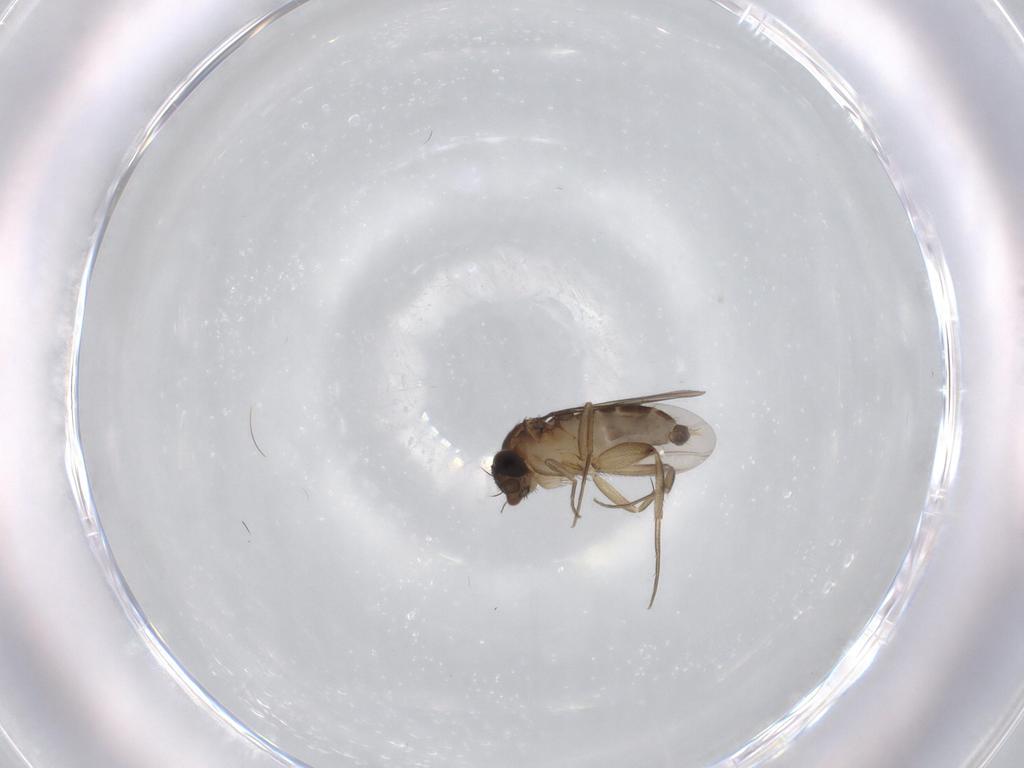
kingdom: Animalia
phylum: Arthropoda
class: Insecta
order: Diptera
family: Phoridae
